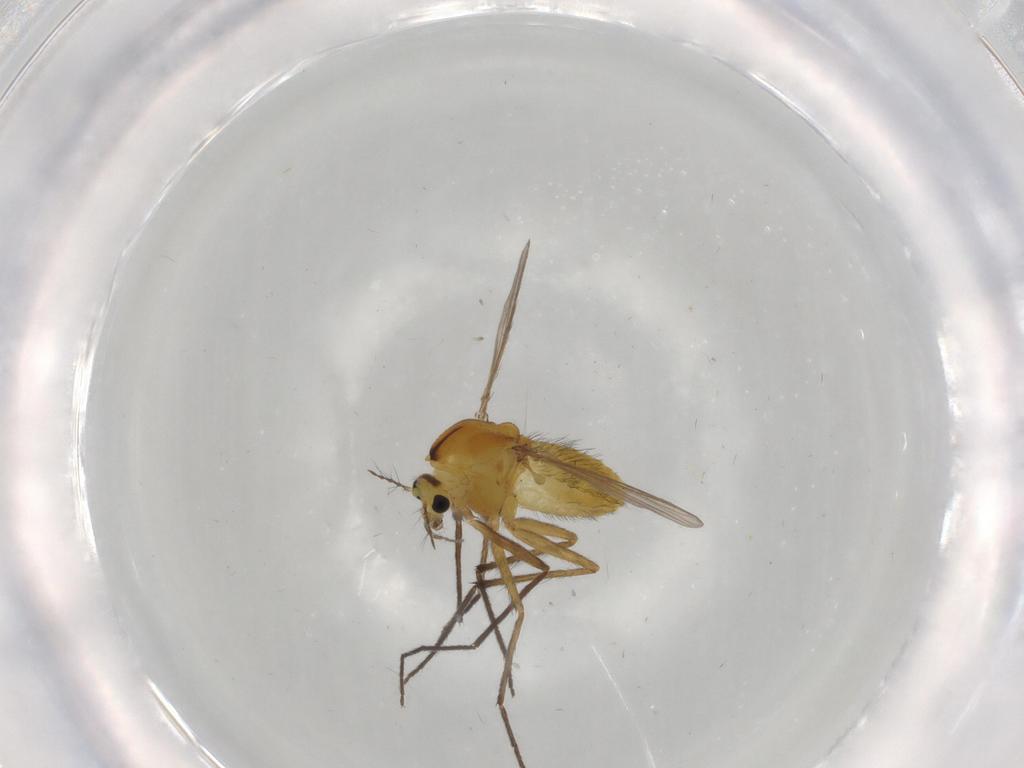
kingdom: Animalia
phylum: Arthropoda
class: Insecta
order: Diptera
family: Chironomidae
